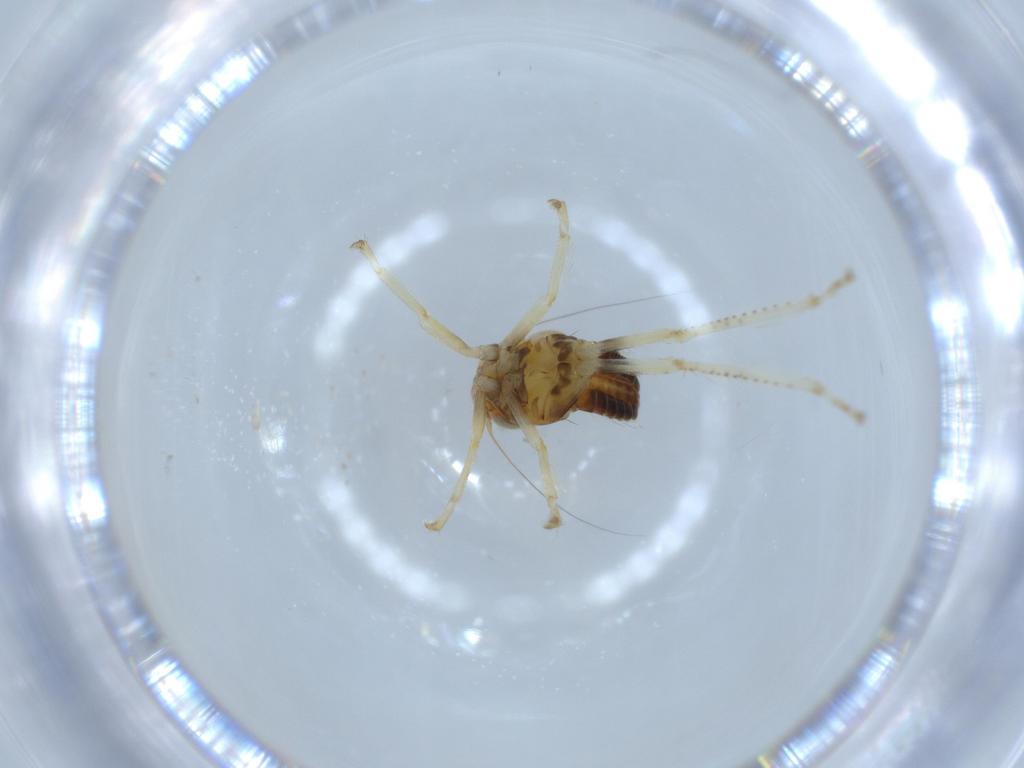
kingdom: Animalia
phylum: Arthropoda
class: Insecta
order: Hemiptera
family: Cicadellidae
